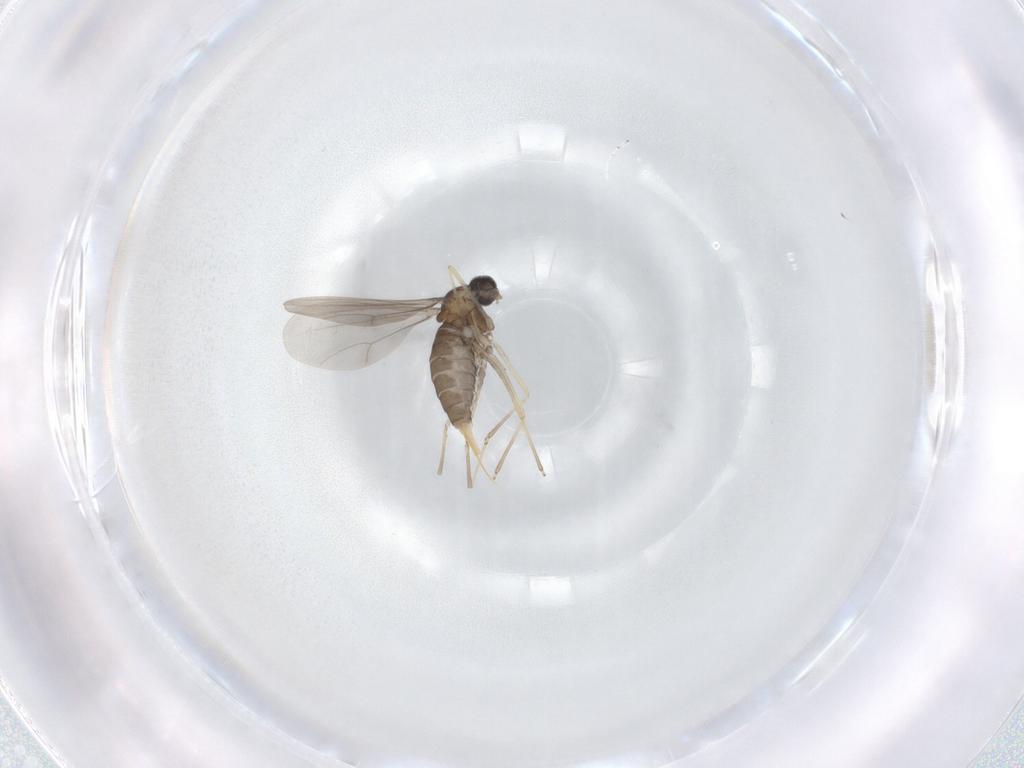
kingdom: Animalia
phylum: Arthropoda
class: Insecta
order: Diptera
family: Cecidomyiidae
